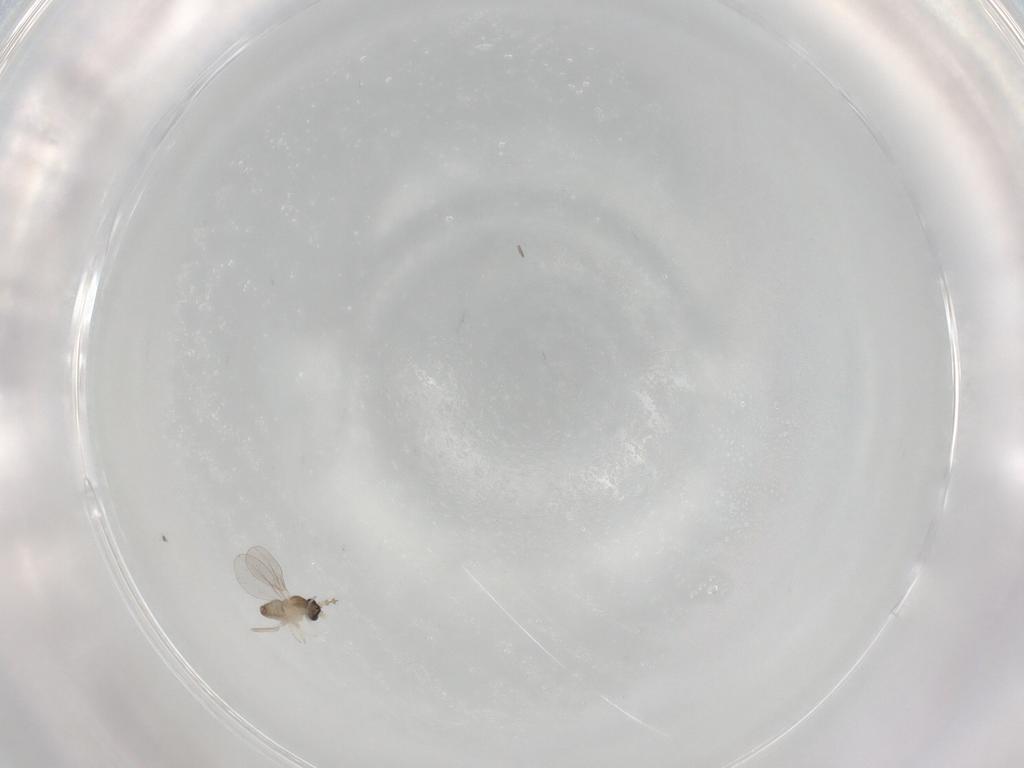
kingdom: Animalia
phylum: Arthropoda
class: Insecta
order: Diptera
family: Cecidomyiidae
